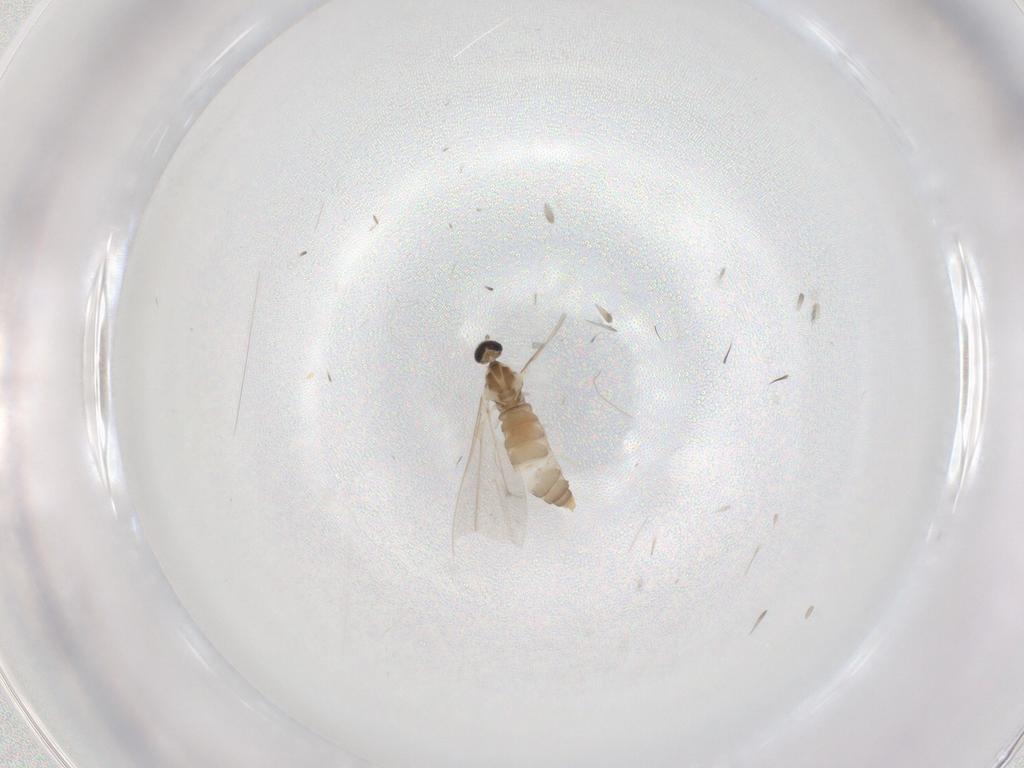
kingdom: Animalia
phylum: Arthropoda
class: Insecta
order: Diptera
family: Cecidomyiidae
